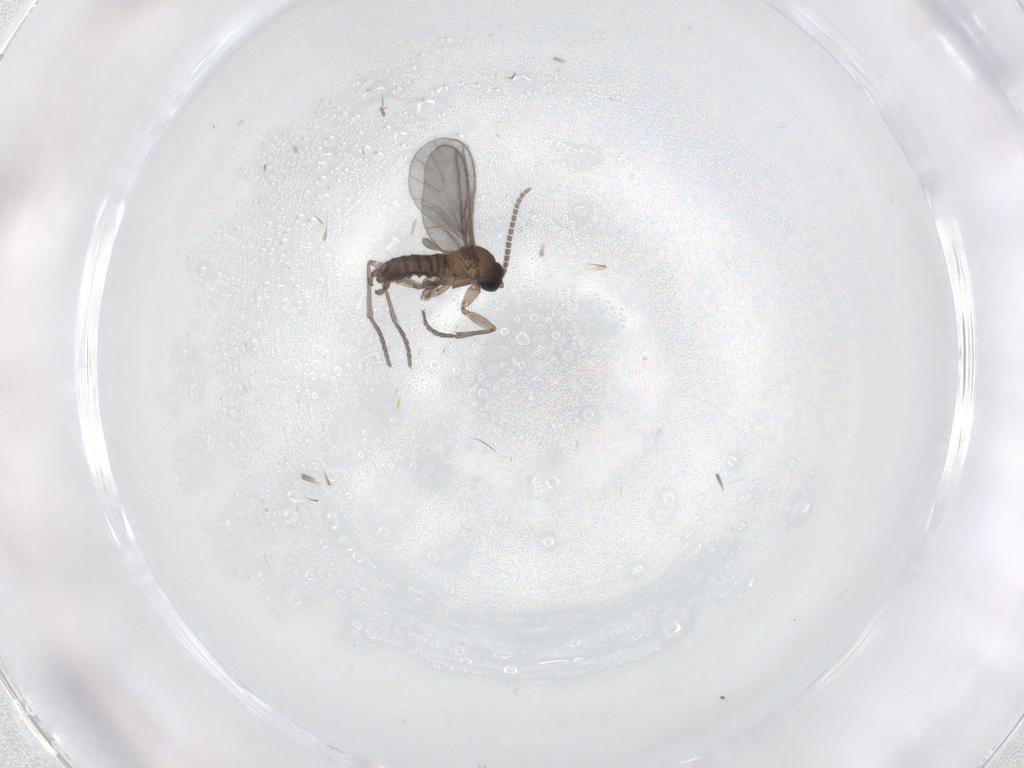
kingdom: Animalia
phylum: Arthropoda
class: Insecta
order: Diptera
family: Sciaridae
